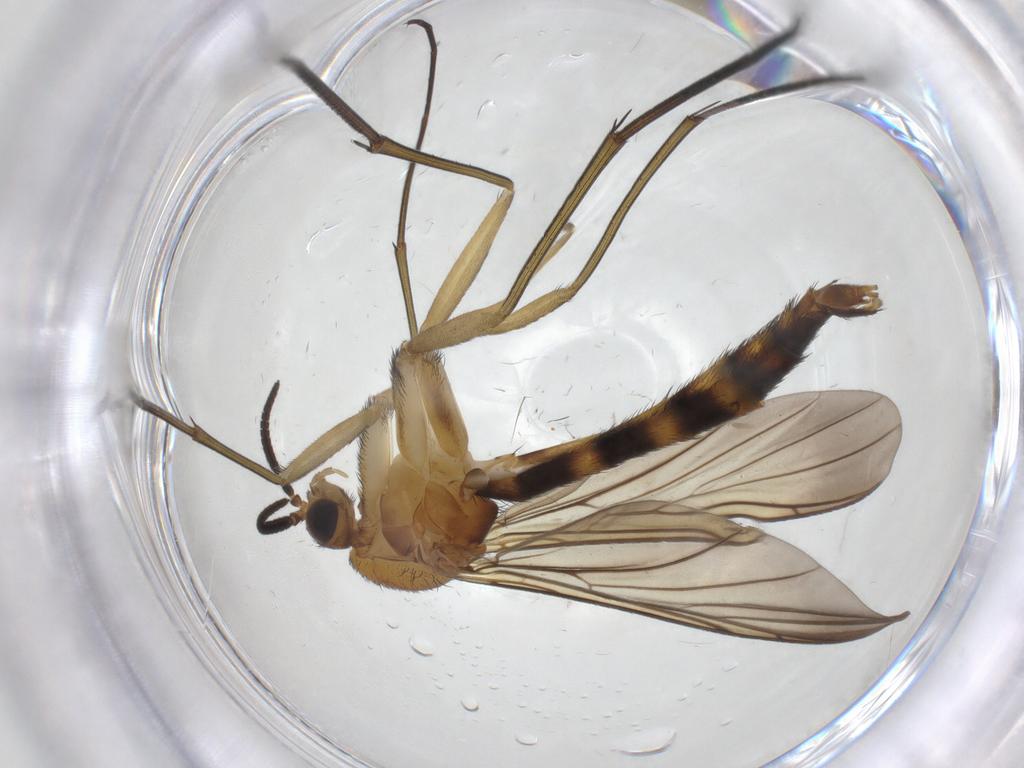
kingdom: Animalia
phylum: Arthropoda
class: Insecta
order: Diptera
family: Keroplatidae
